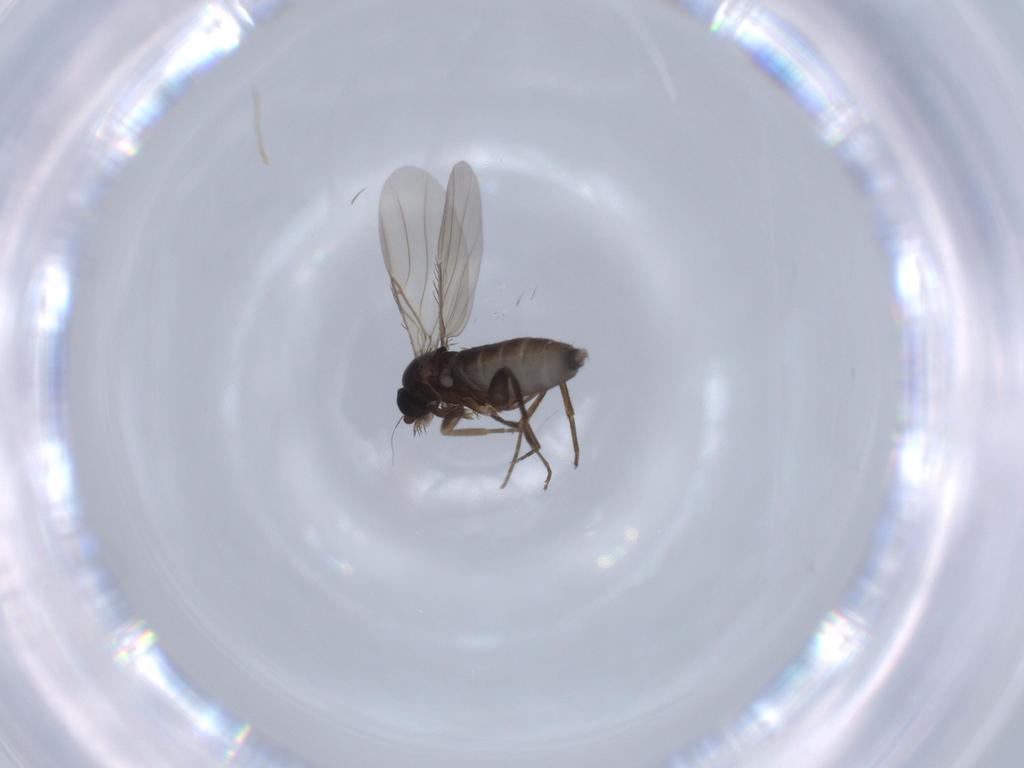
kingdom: Animalia
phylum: Arthropoda
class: Insecta
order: Diptera
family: Phoridae
